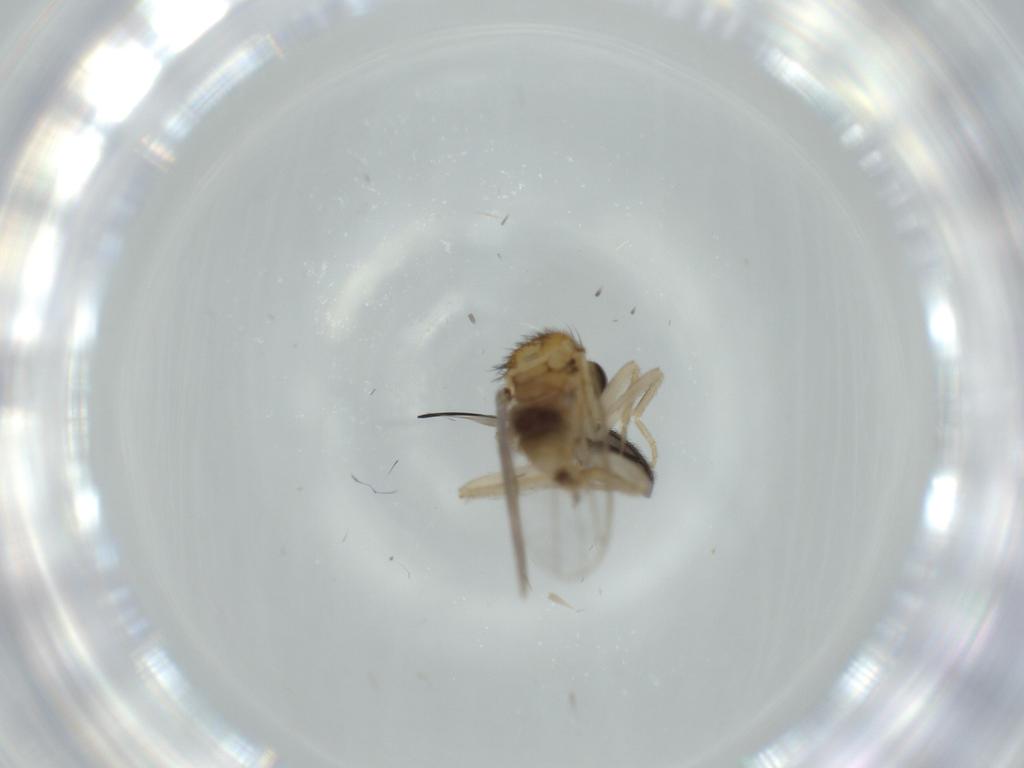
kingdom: Animalia
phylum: Arthropoda
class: Insecta
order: Diptera
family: Hybotidae
